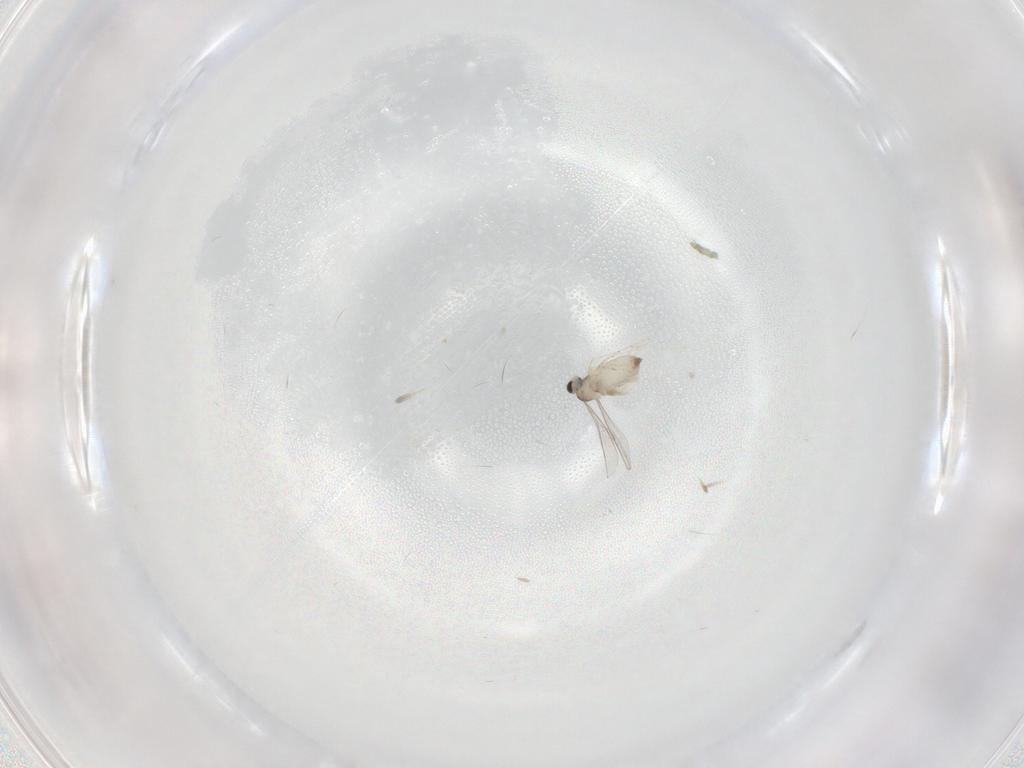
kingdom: Animalia
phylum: Arthropoda
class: Insecta
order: Diptera
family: Cecidomyiidae
